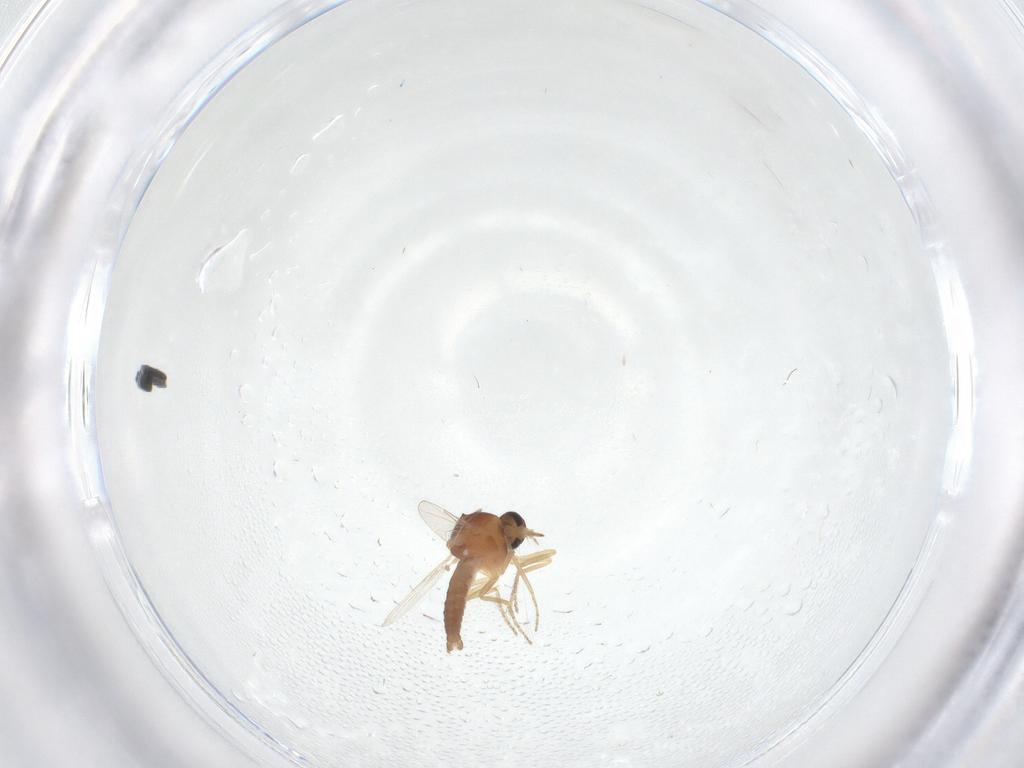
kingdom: Animalia
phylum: Arthropoda
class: Insecta
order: Diptera
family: Ceratopogonidae
